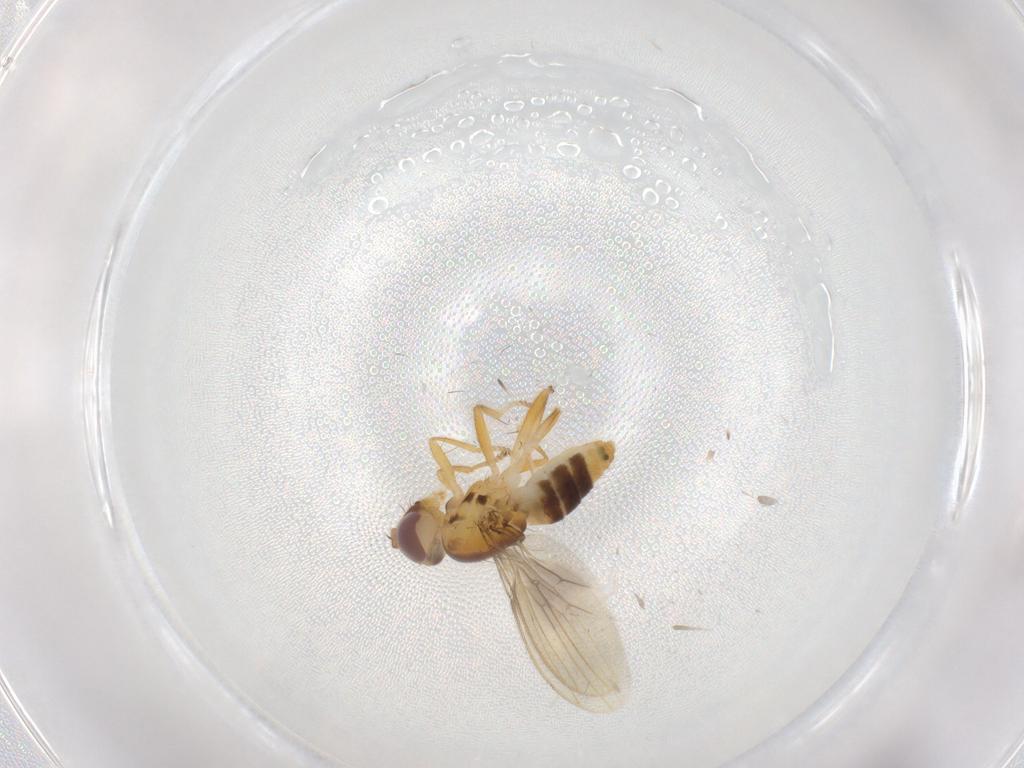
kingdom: Animalia
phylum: Arthropoda
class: Insecta
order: Diptera
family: Periscelididae
